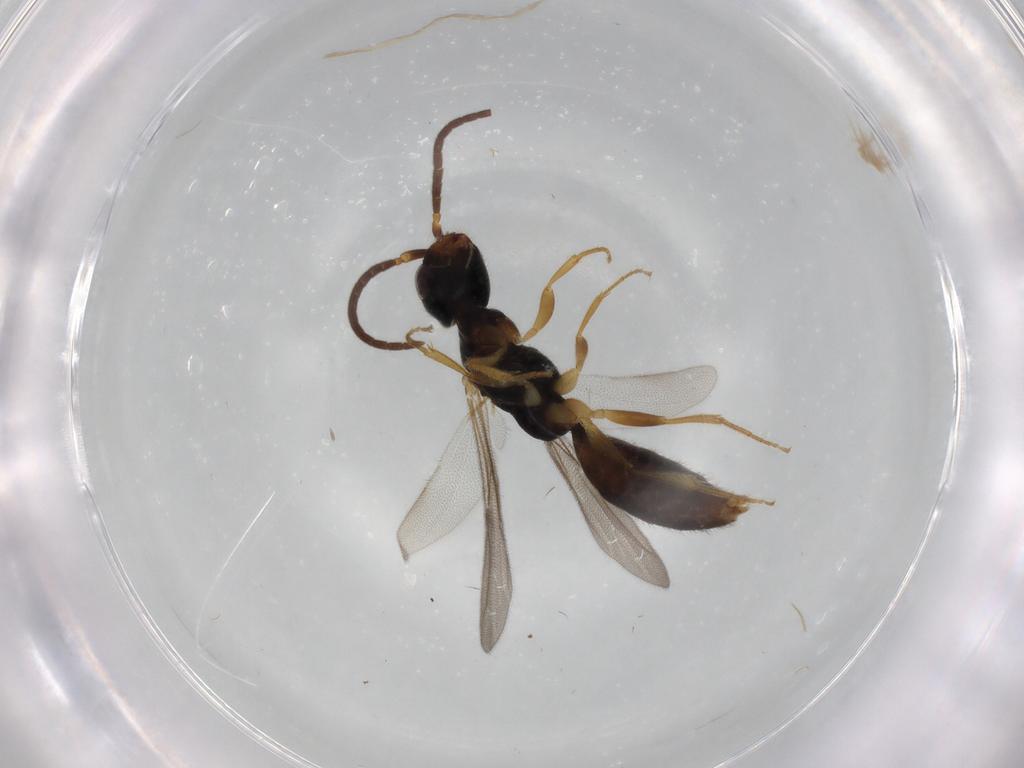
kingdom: Animalia
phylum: Arthropoda
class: Insecta
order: Hymenoptera
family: Bethylidae
